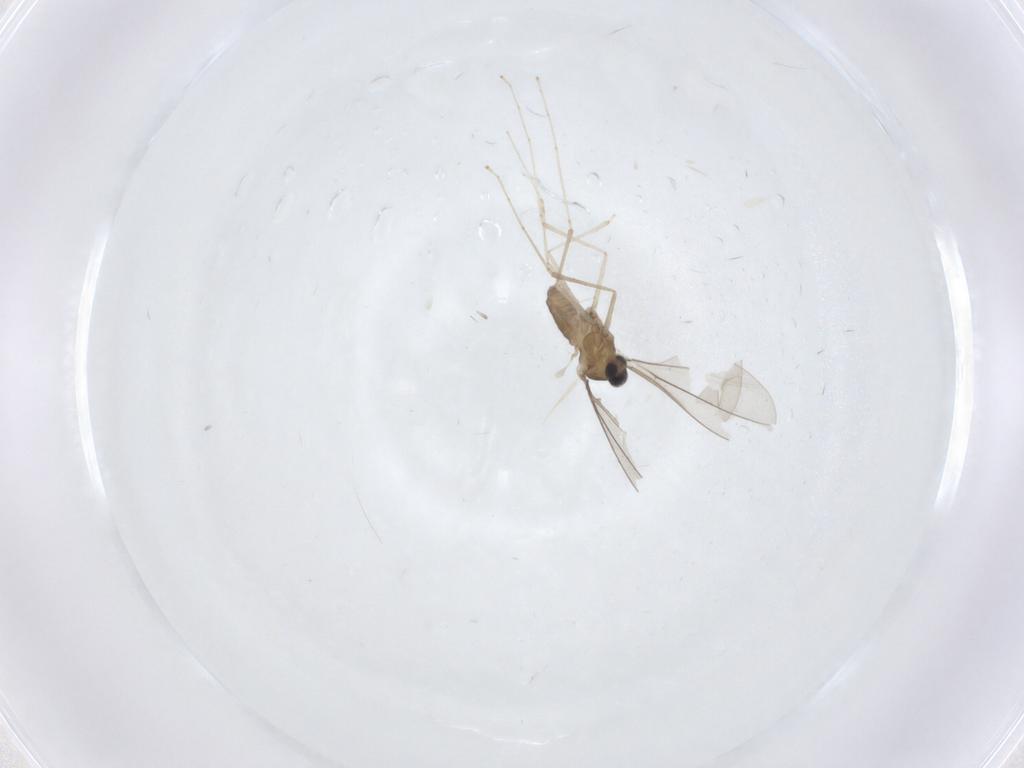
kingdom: Animalia
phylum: Arthropoda
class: Insecta
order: Diptera
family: Cecidomyiidae
